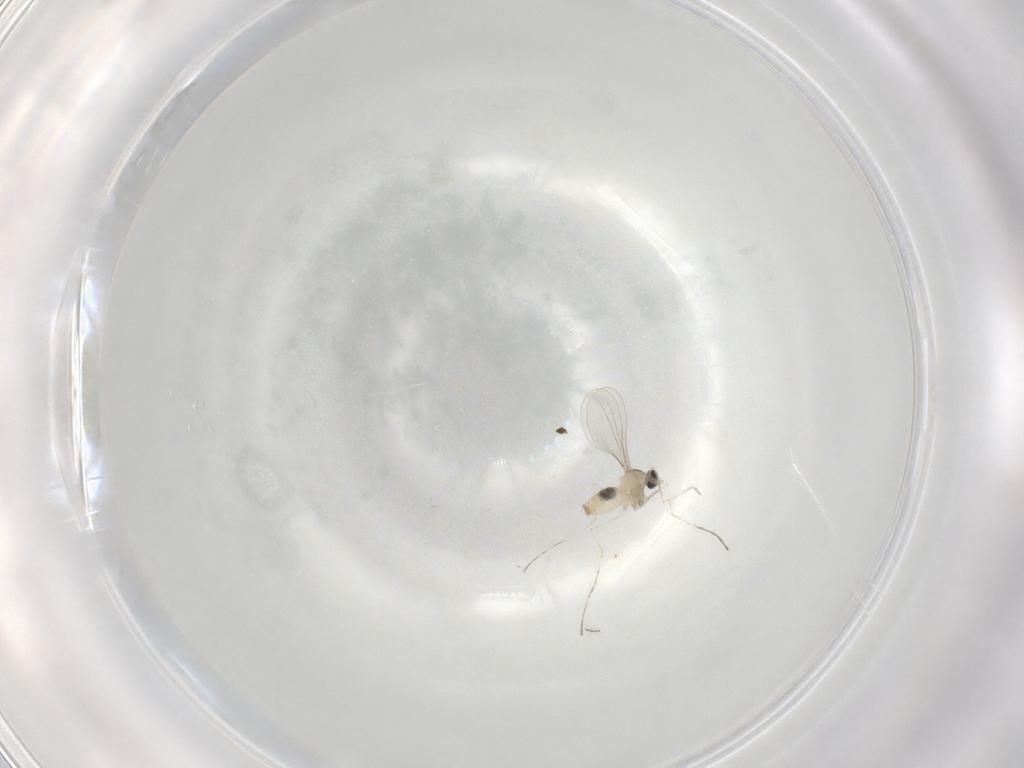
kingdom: Animalia
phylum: Arthropoda
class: Insecta
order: Diptera
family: Cecidomyiidae
